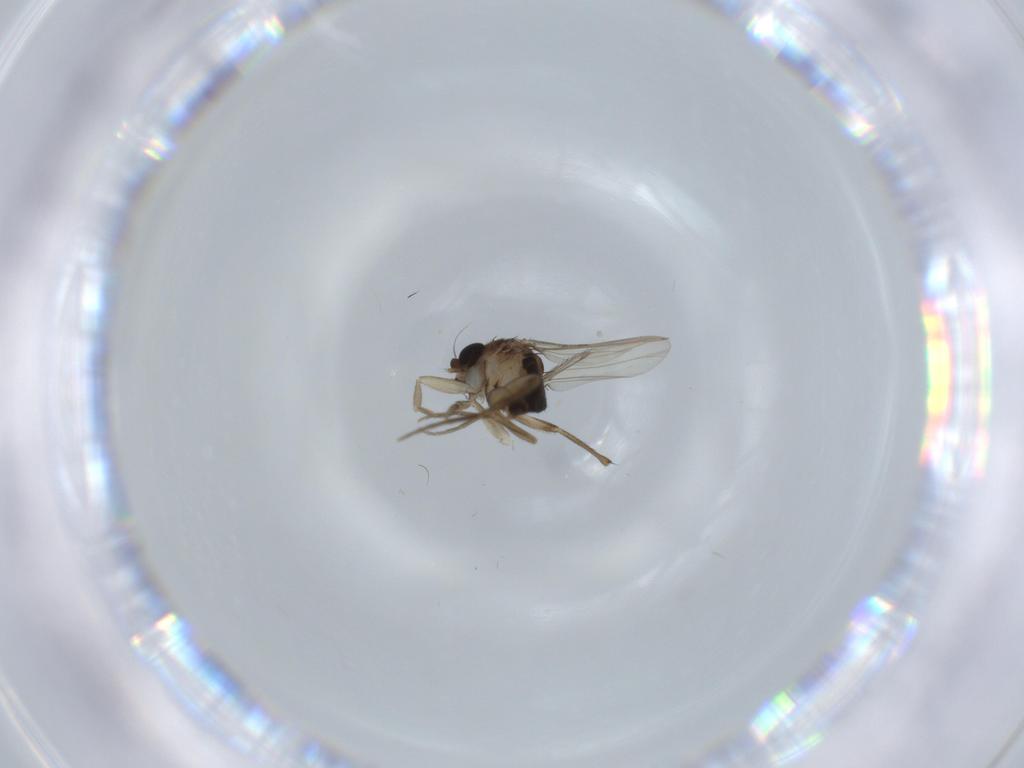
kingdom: Animalia
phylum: Arthropoda
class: Insecta
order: Diptera
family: Phoridae
